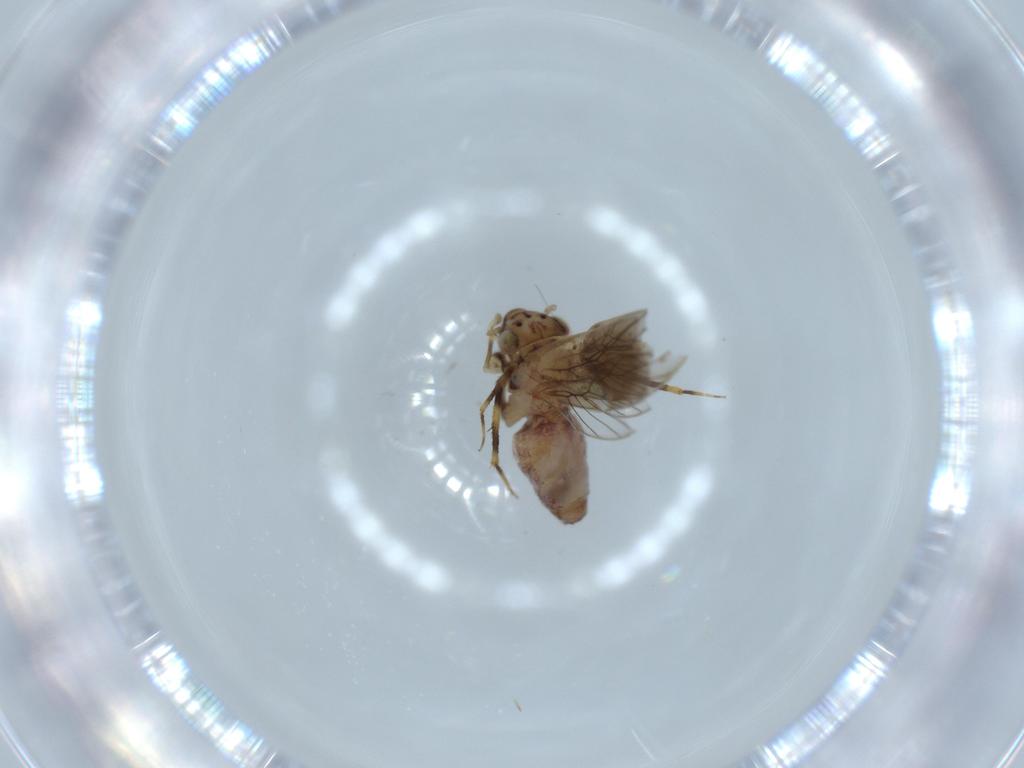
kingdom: Animalia
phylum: Arthropoda
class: Insecta
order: Psocodea
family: Lepidopsocidae
